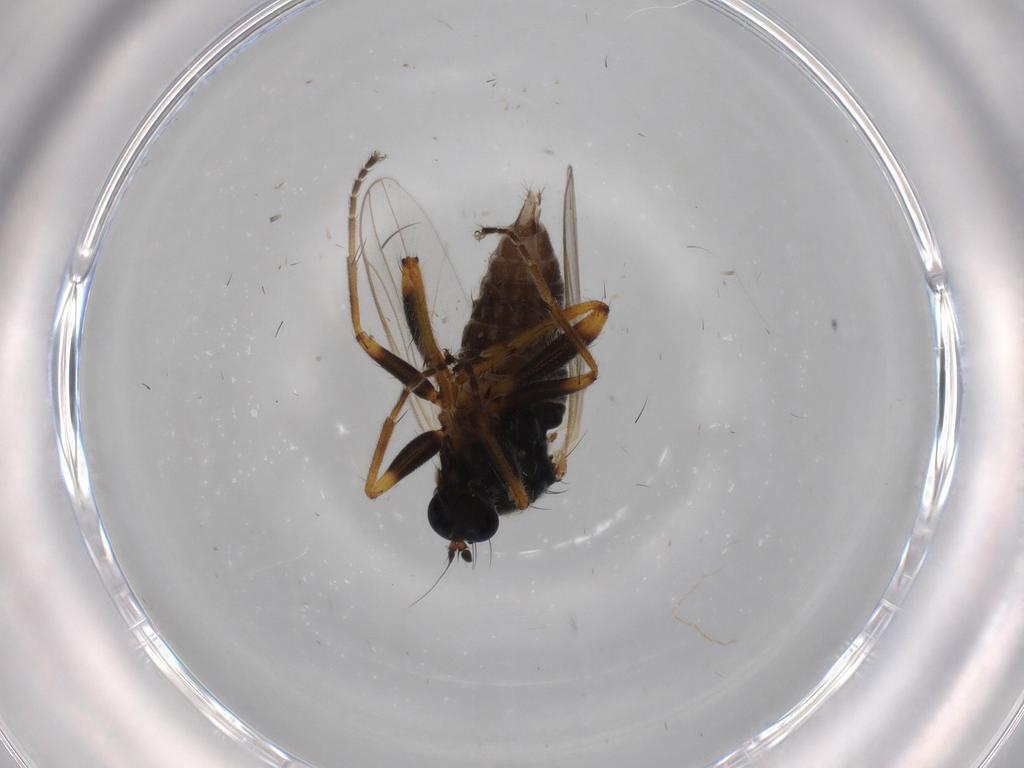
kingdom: Animalia
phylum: Arthropoda
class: Insecta
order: Diptera
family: Hybotidae
